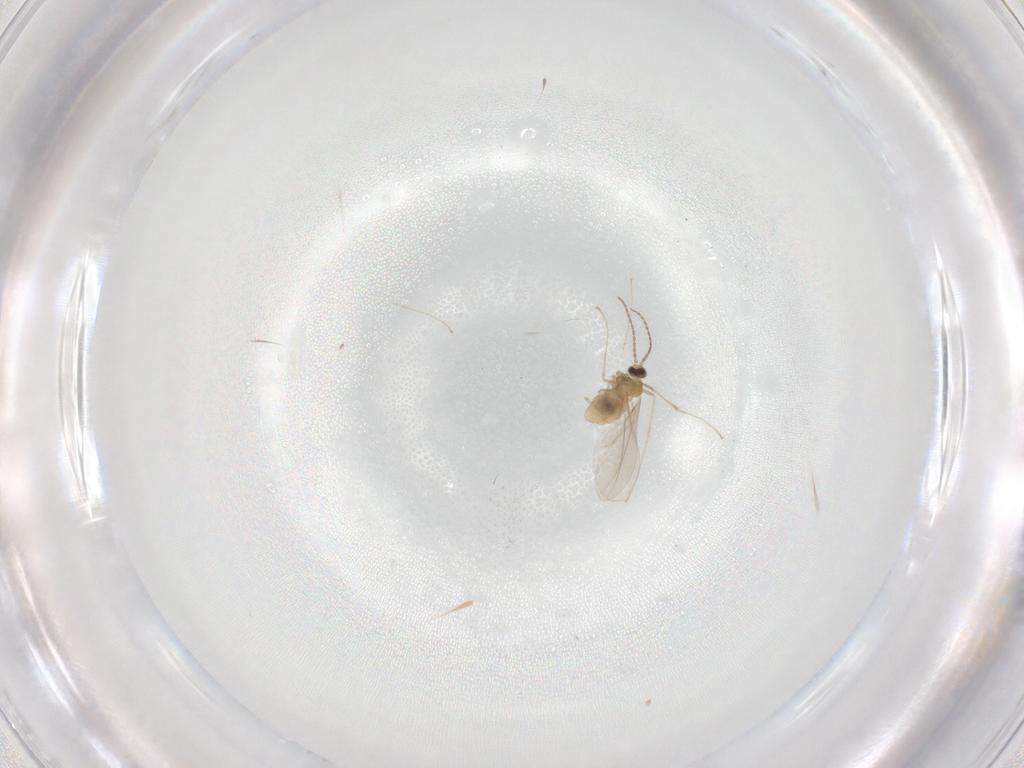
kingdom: Animalia
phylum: Arthropoda
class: Insecta
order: Diptera
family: Cecidomyiidae
